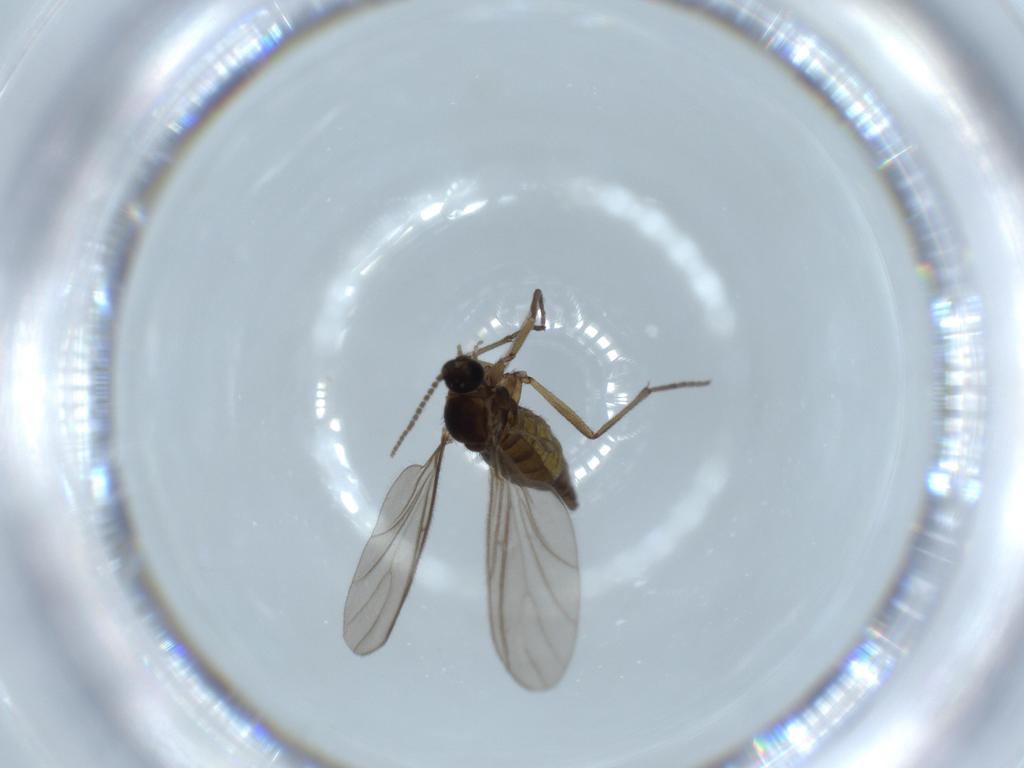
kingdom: Animalia
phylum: Arthropoda
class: Insecta
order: Diptera
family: Sciaridae
